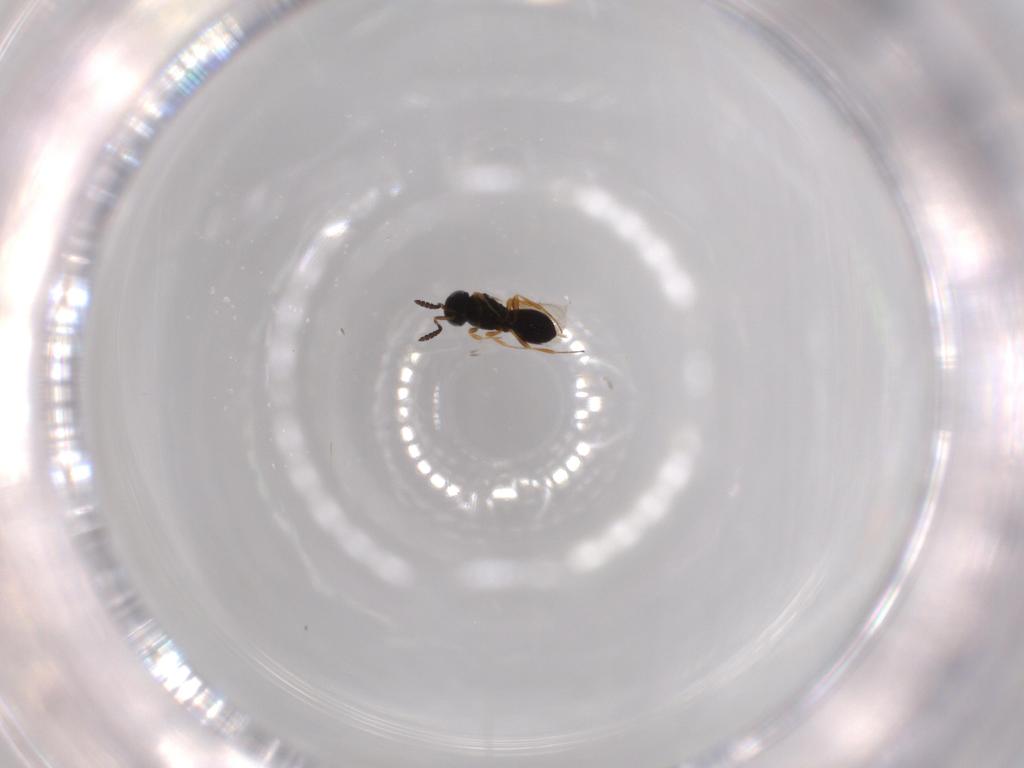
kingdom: Animalia
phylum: Arthropoda
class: Insecta
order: Hymenoptera
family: Scelionidae
